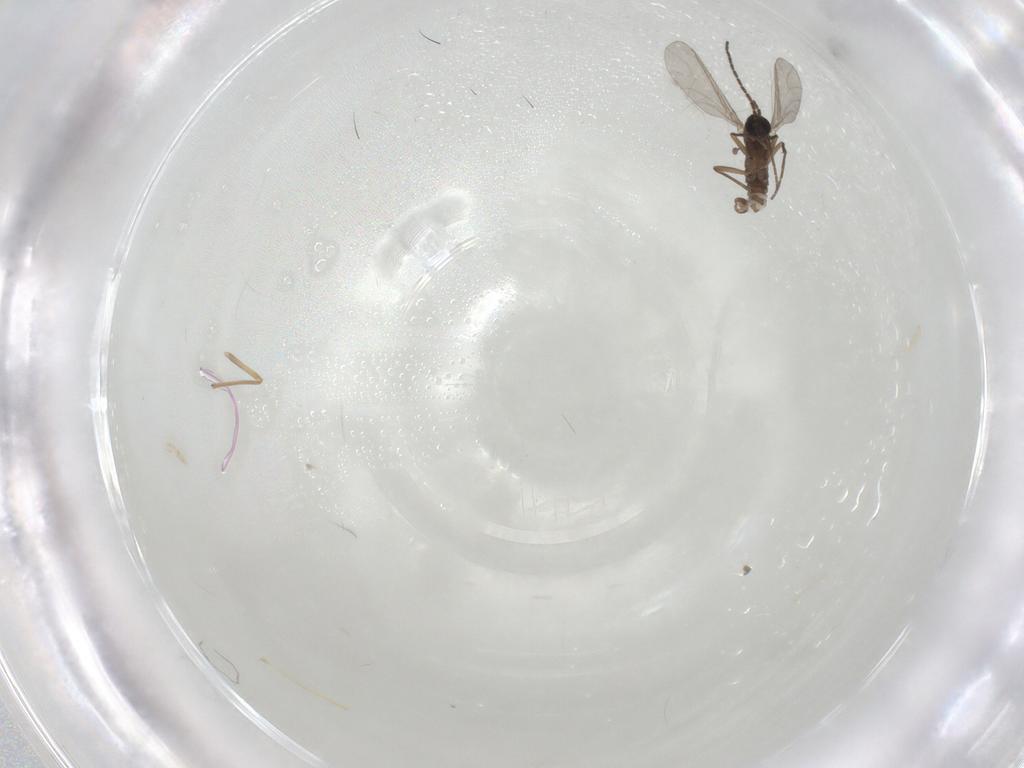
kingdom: Animalia
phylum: Arthropoda
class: Insecta
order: Diptera
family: Sciaridae
